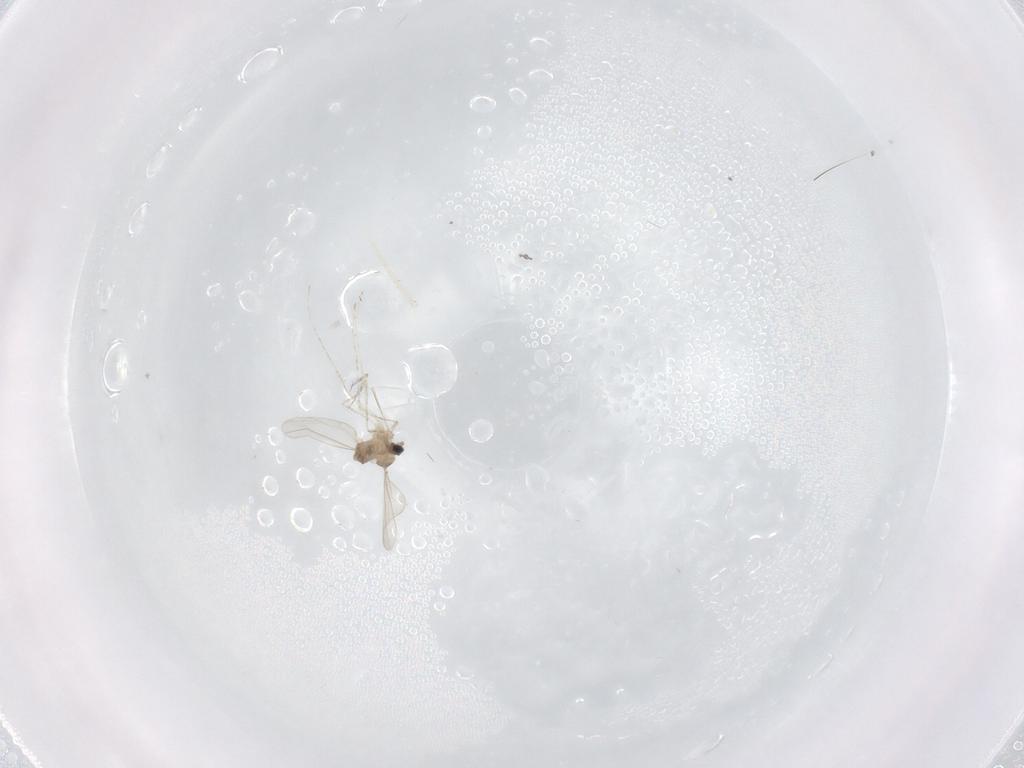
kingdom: Animalia
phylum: Arthropoda
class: Insecta
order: Diptera
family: Cecidomyiidae
